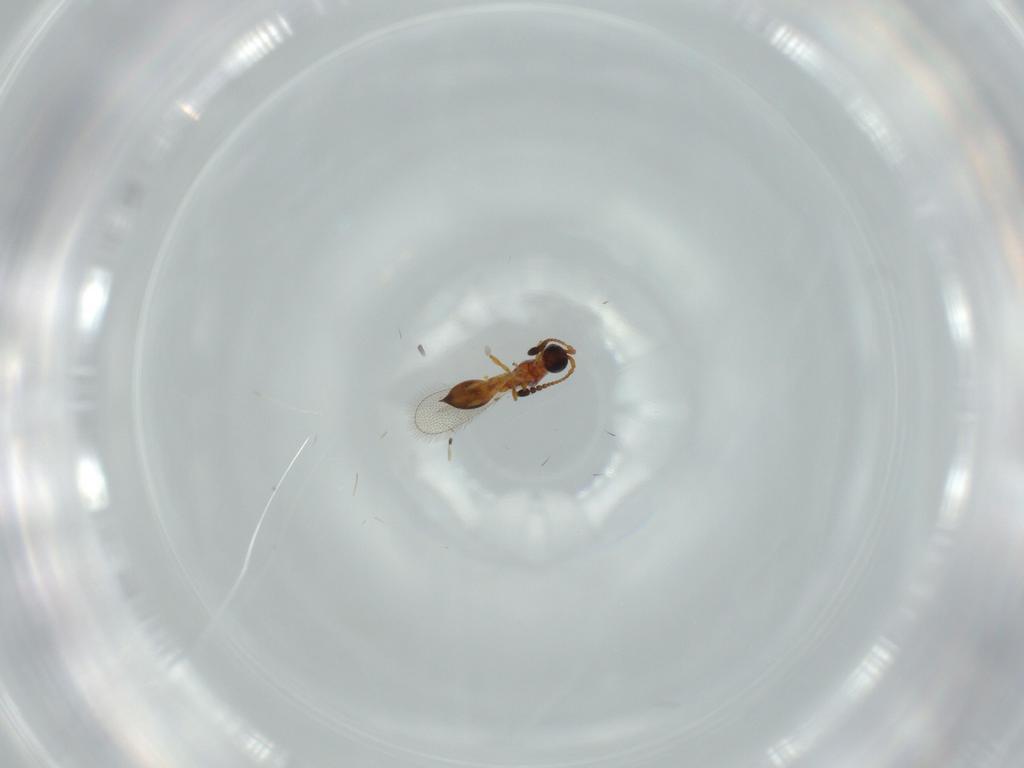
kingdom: Animalia
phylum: Arthropoda
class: Insecta
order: Hymenoptera
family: Diapriidae
